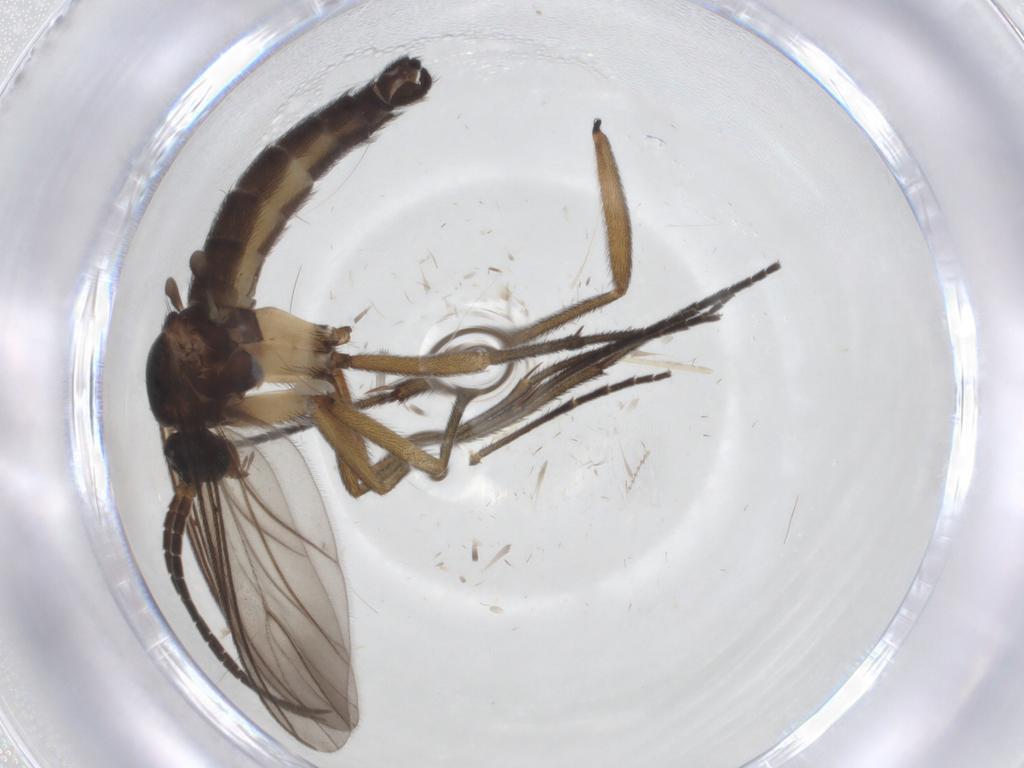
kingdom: Animalia
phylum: Arthropoda
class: Insecta
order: Diptera
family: Sciaridae
